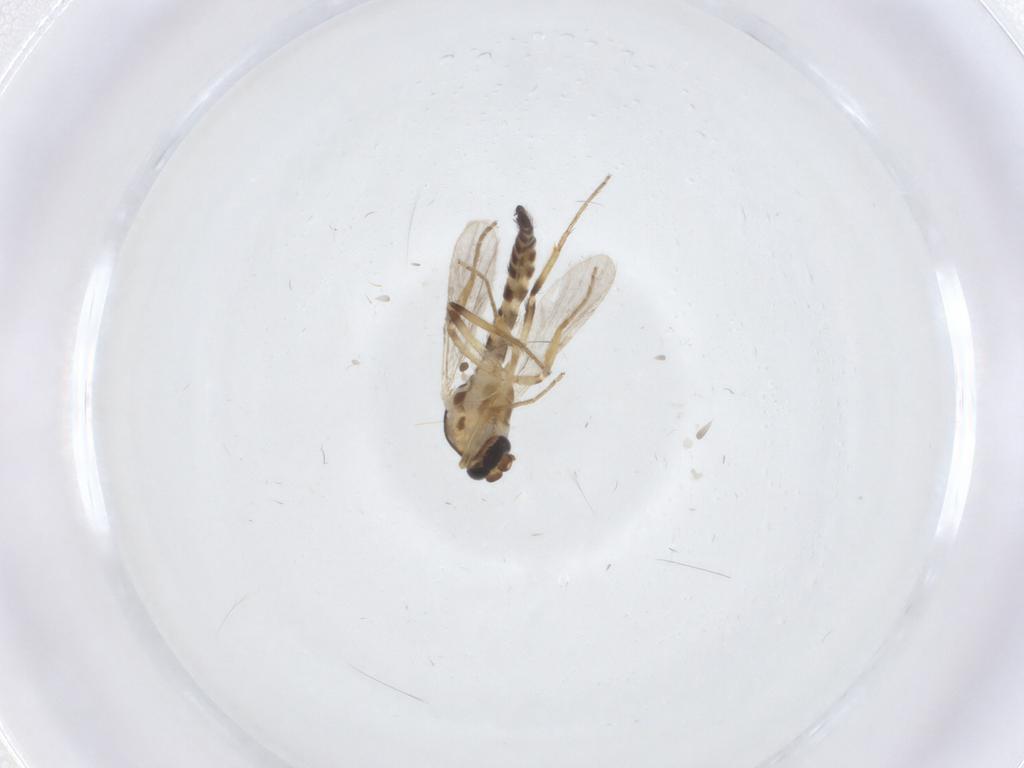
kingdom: Animalia
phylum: Arthropoda
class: Insecta
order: Diptera
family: Ceratopogonidae
